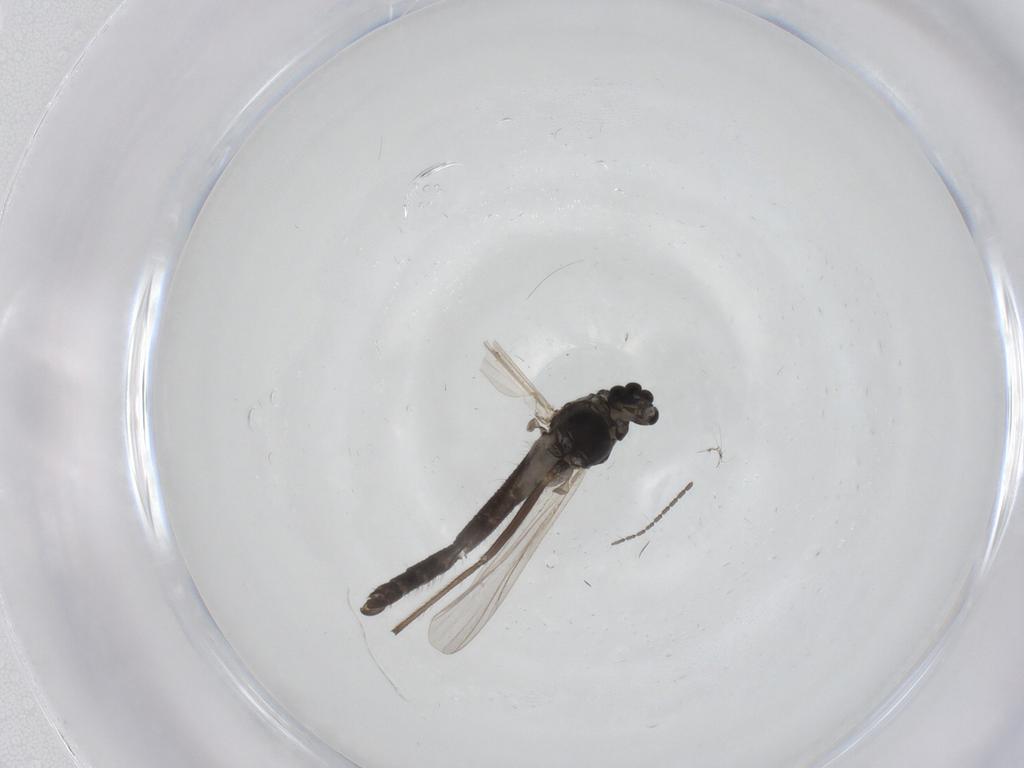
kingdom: Animalia
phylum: Arthropoda
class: Insecta
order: Diptera
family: Chironomidae
